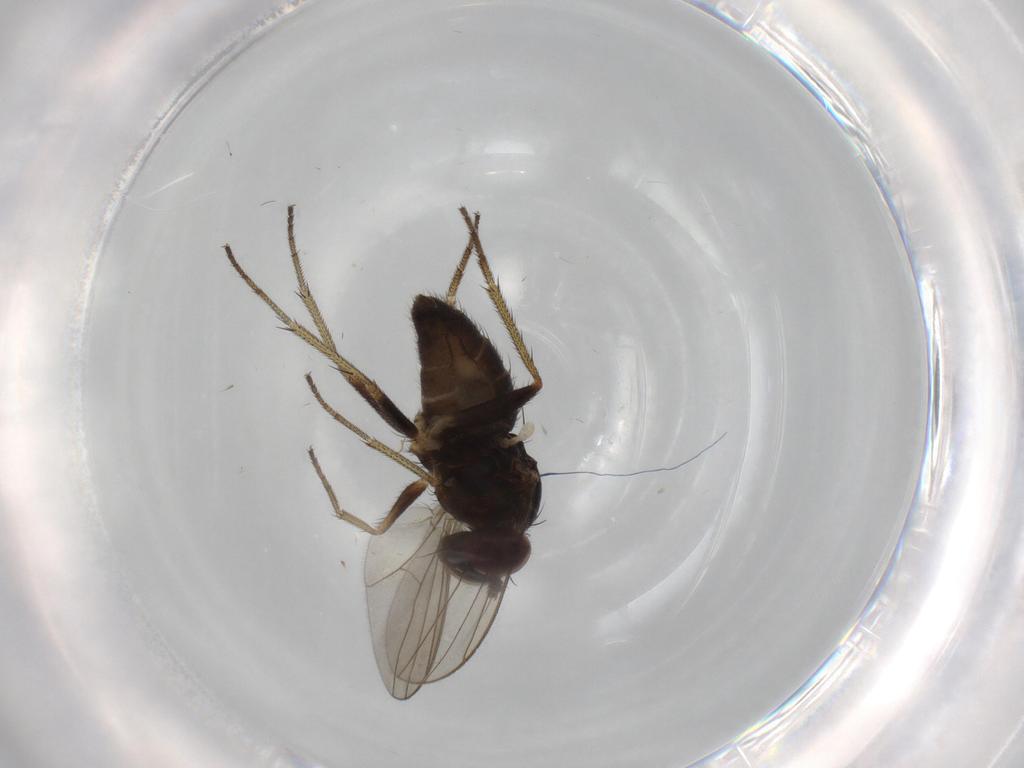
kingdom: Animalia
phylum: Arthropoda
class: Insecta
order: Diptera
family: Dolichopodidae
